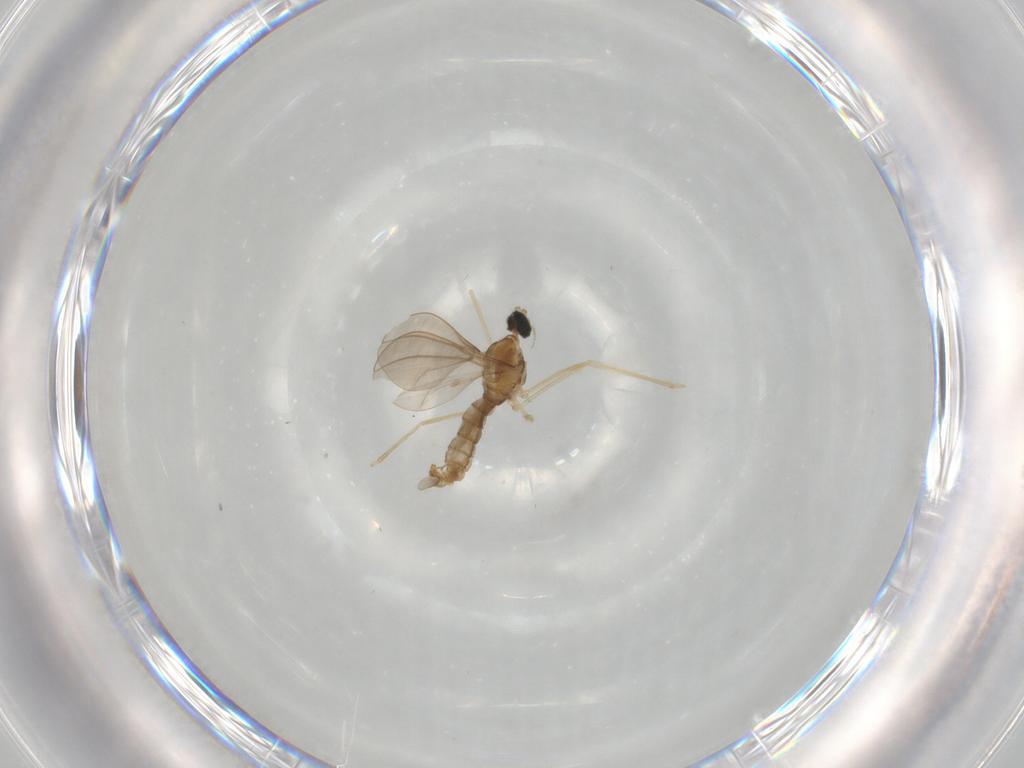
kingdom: Animalia
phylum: Arthropoda
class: Insecta
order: Diptera
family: Cecidomyiidae
